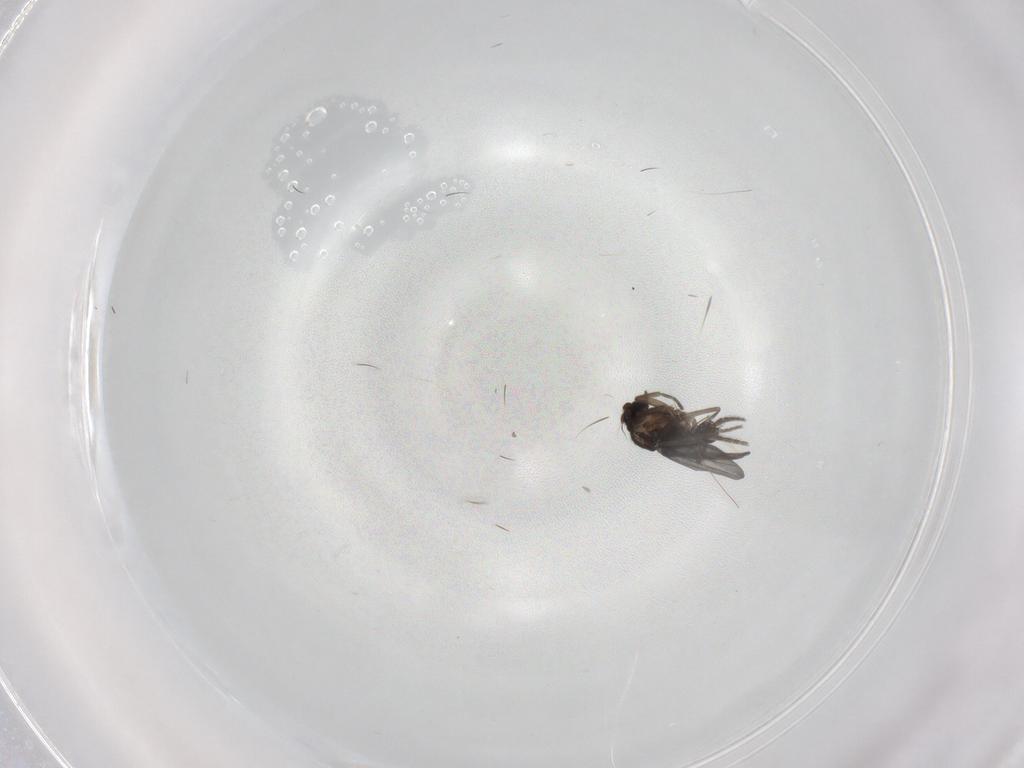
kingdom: Animalia
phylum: Arthropoda
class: Insecta
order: Diptera
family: Phoridae
